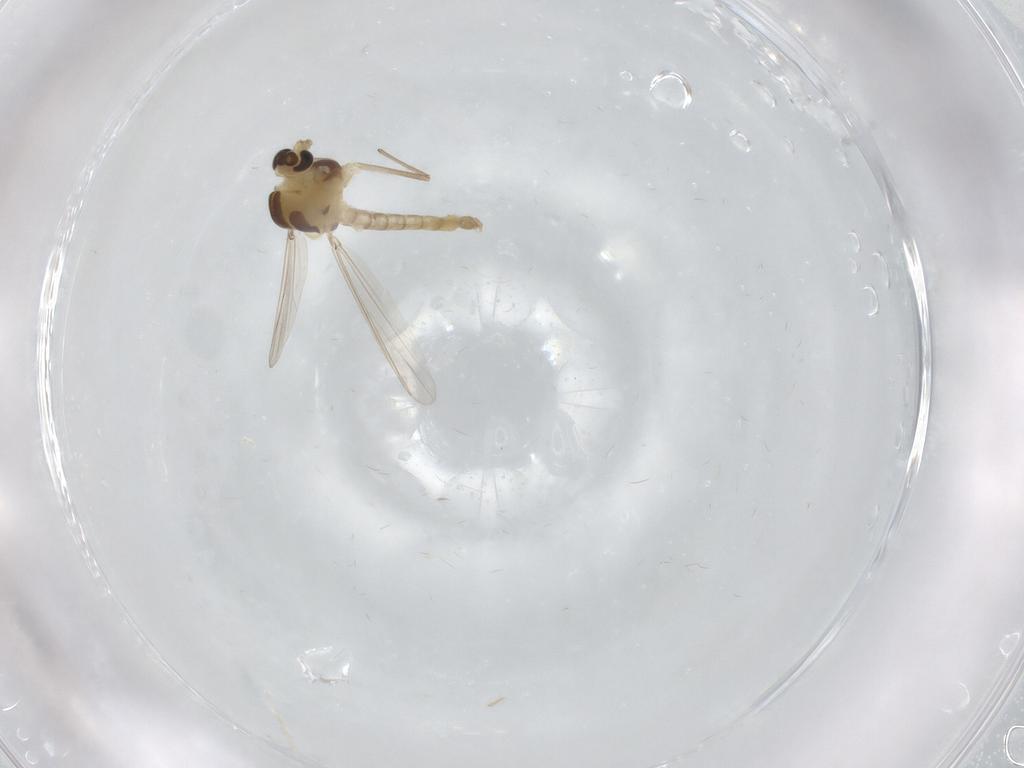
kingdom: Animalia
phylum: Arthropoda
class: Insecta
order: Diptera
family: Chironomidae
